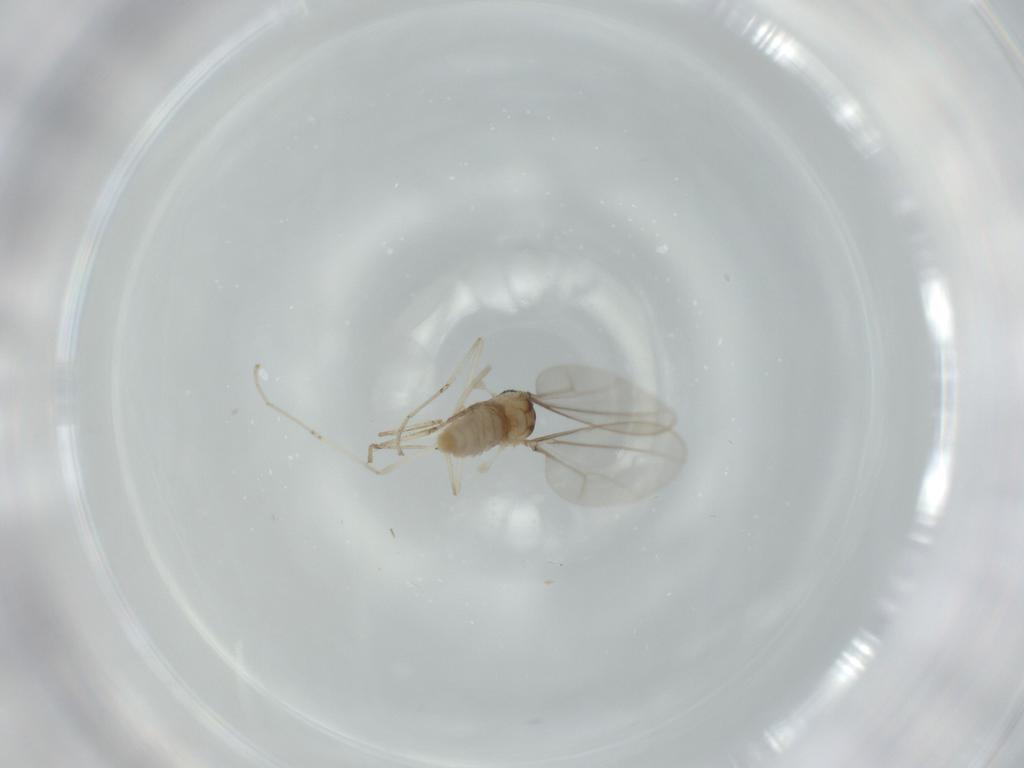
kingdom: Animalia
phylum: Arthropoda
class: Insecta
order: Diptera
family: Cecidomyiidae
